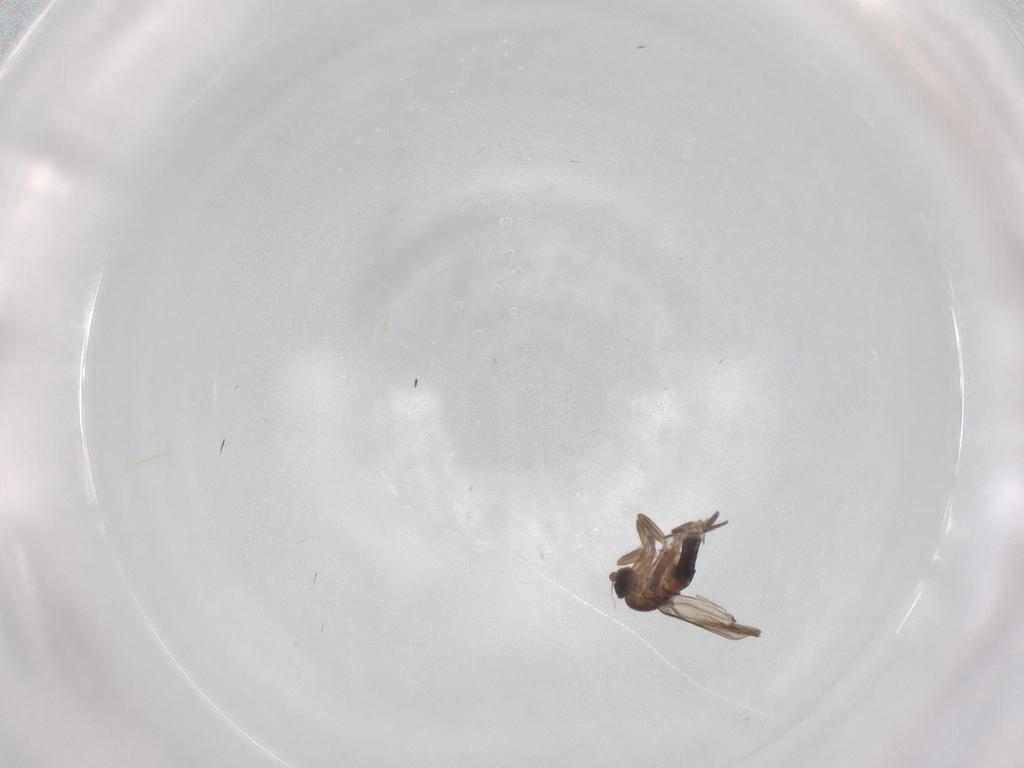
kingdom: Animalia
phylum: Arthropoda
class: Insecta
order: Diptera
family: Phoridae
